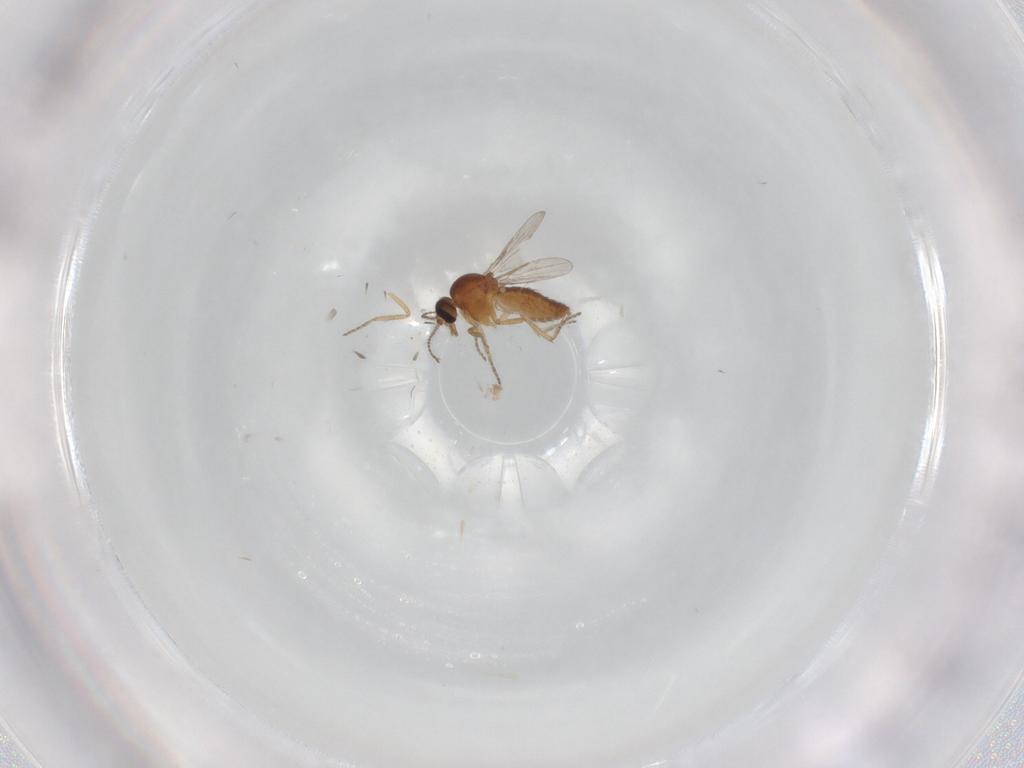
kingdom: Animalia
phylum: Arthropoda
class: Insecta
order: Diptera
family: Ceratopogonidae
